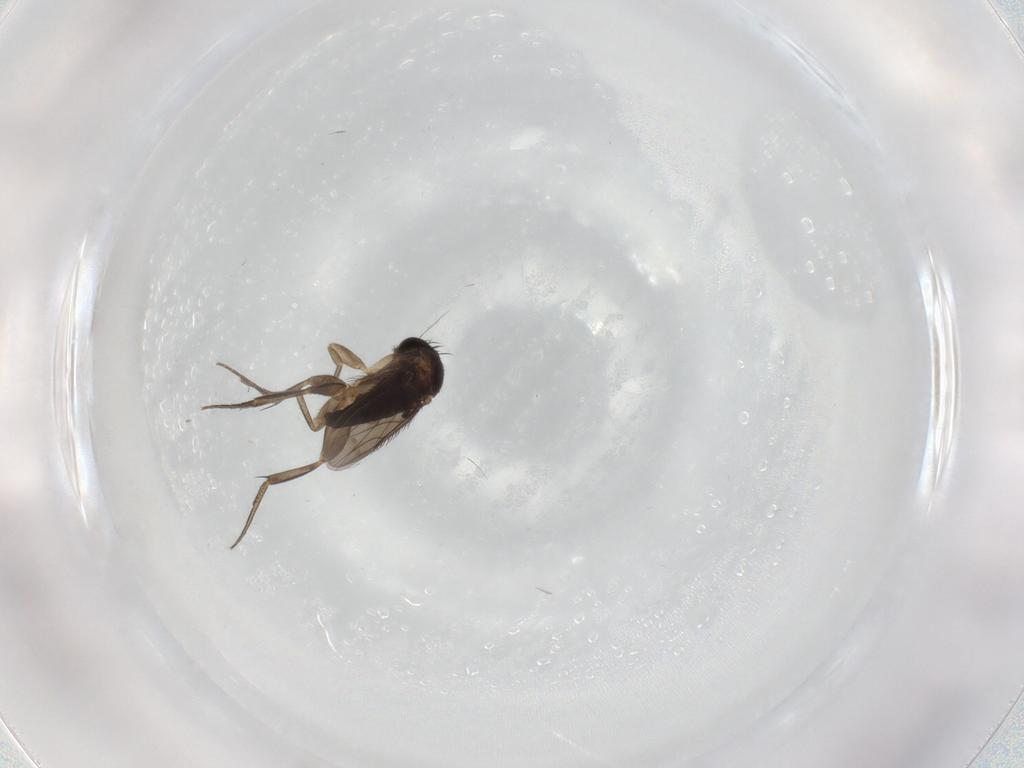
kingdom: Animalia
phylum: Arthropoda
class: Insecta
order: Diptera
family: Phoridae
